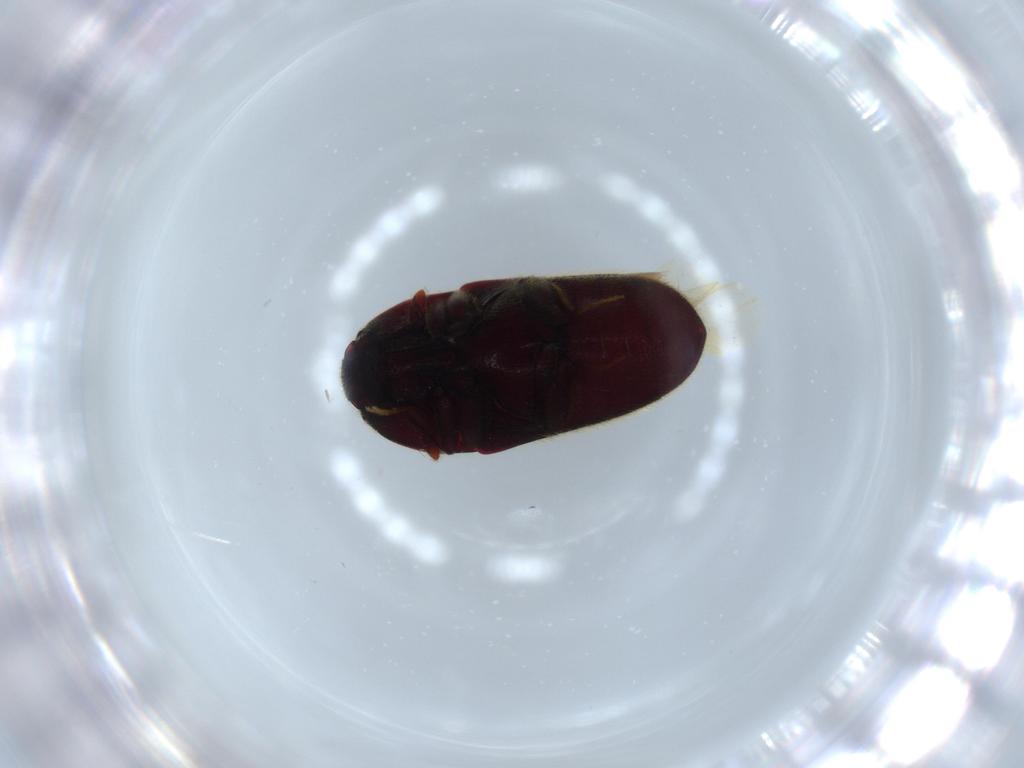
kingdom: Animalia
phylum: Arthropoda
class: Insecta
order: Coleoptera
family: Throscidae
